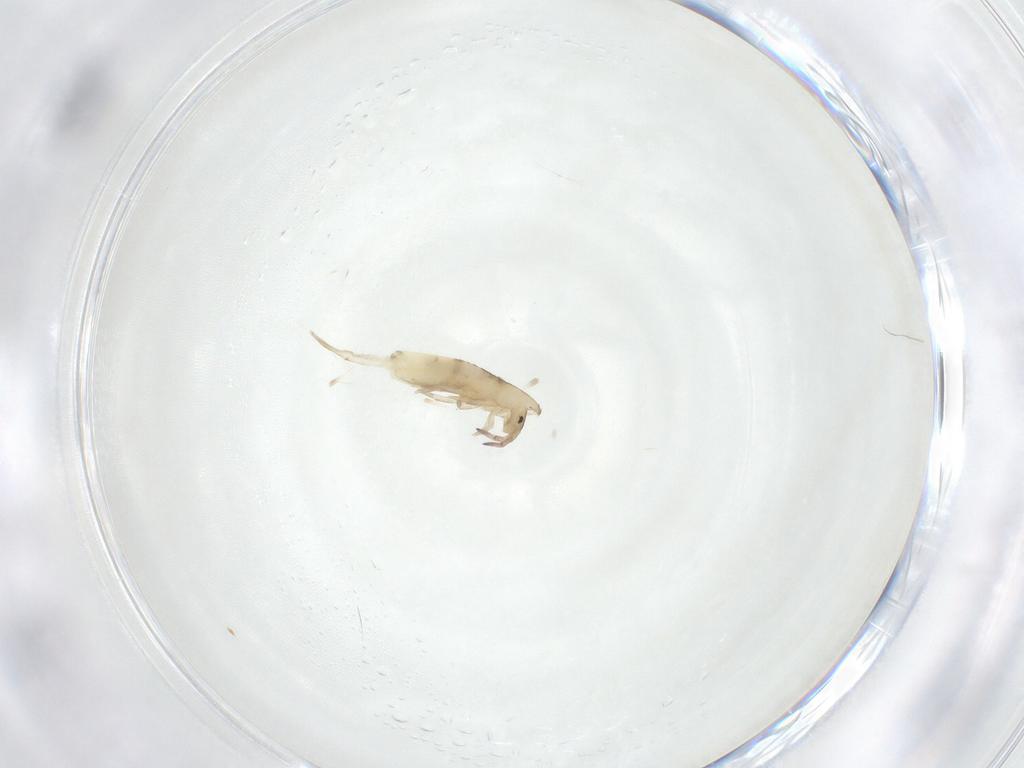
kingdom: Animalia
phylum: Arthropoda
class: Collembola
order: Entomobryomorpha
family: Entomobryidae
